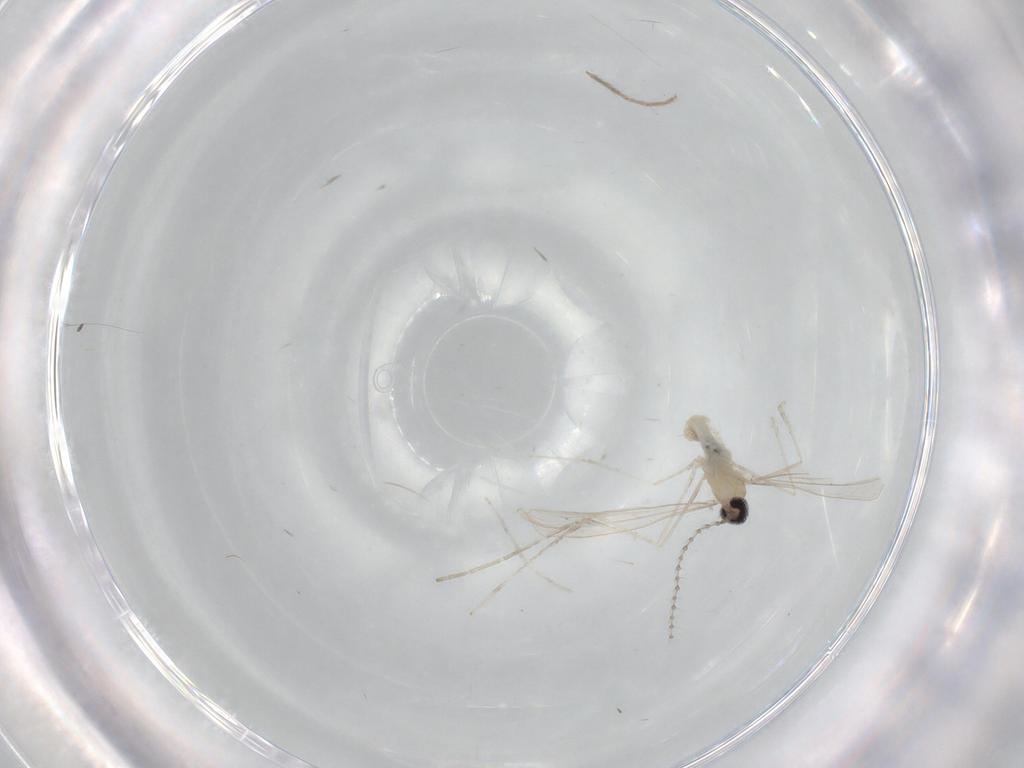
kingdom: Animalia
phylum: Arthropoda
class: Insecta
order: Diptera
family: Cecidomyiidae
